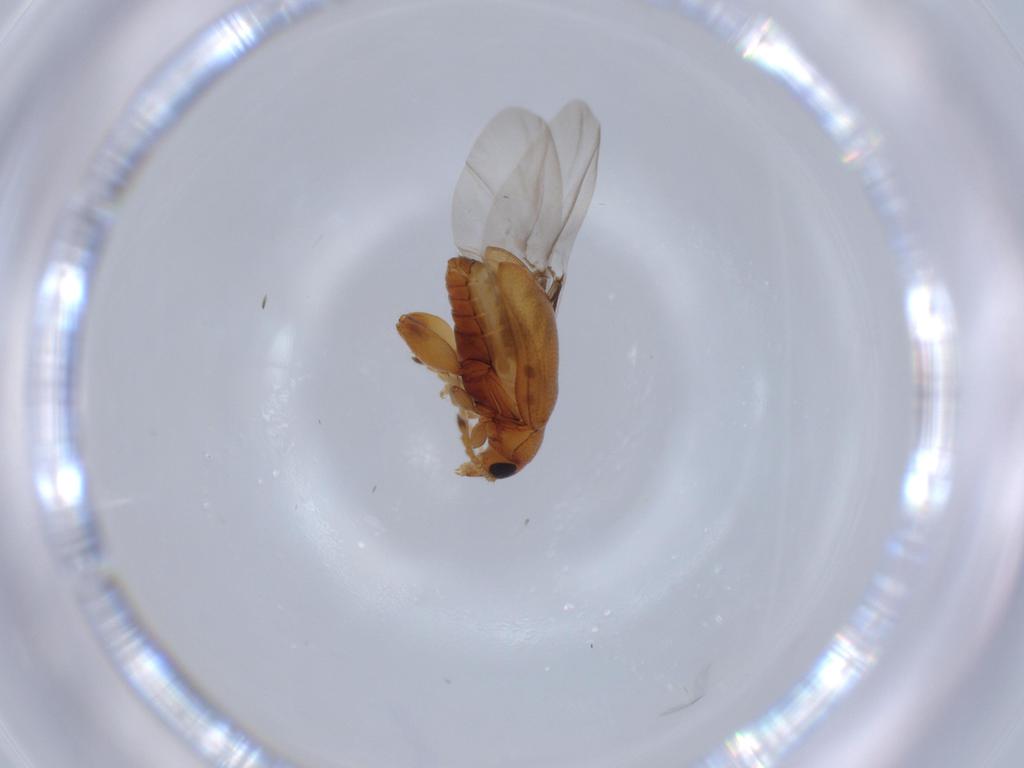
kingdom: Animalia
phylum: Arthropoda
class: Insecta
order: Coleoptera
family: Chrysomelidae
